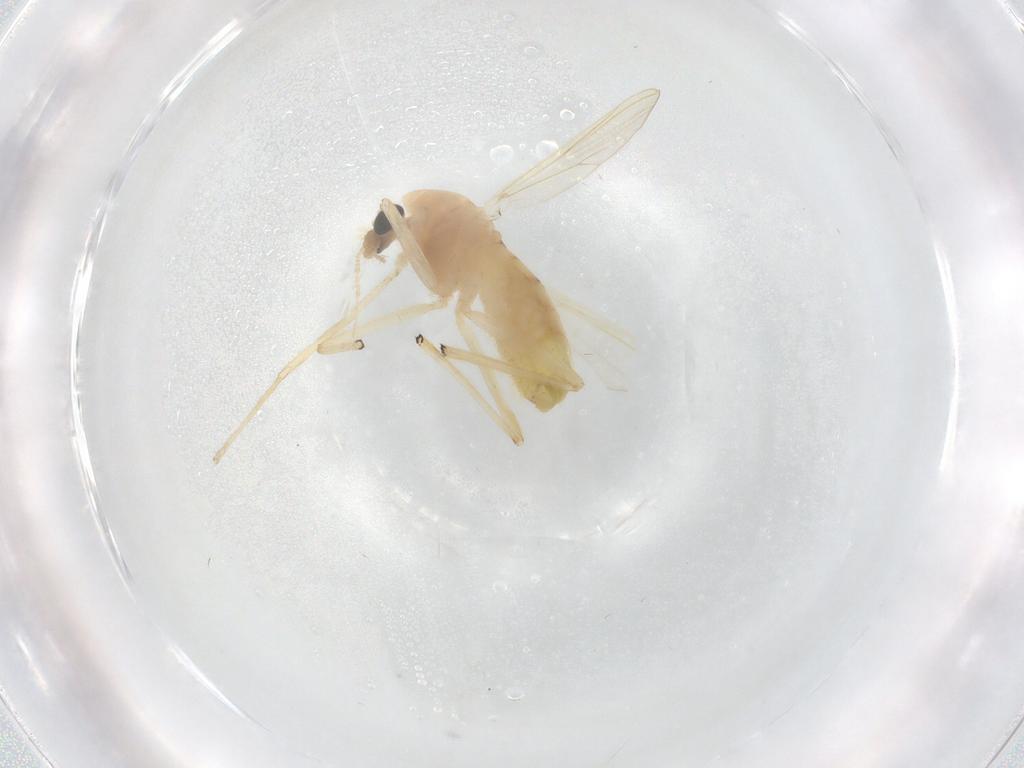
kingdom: Animalia
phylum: Arthropoda
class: Insecta
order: Diptera
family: Chironomidae
